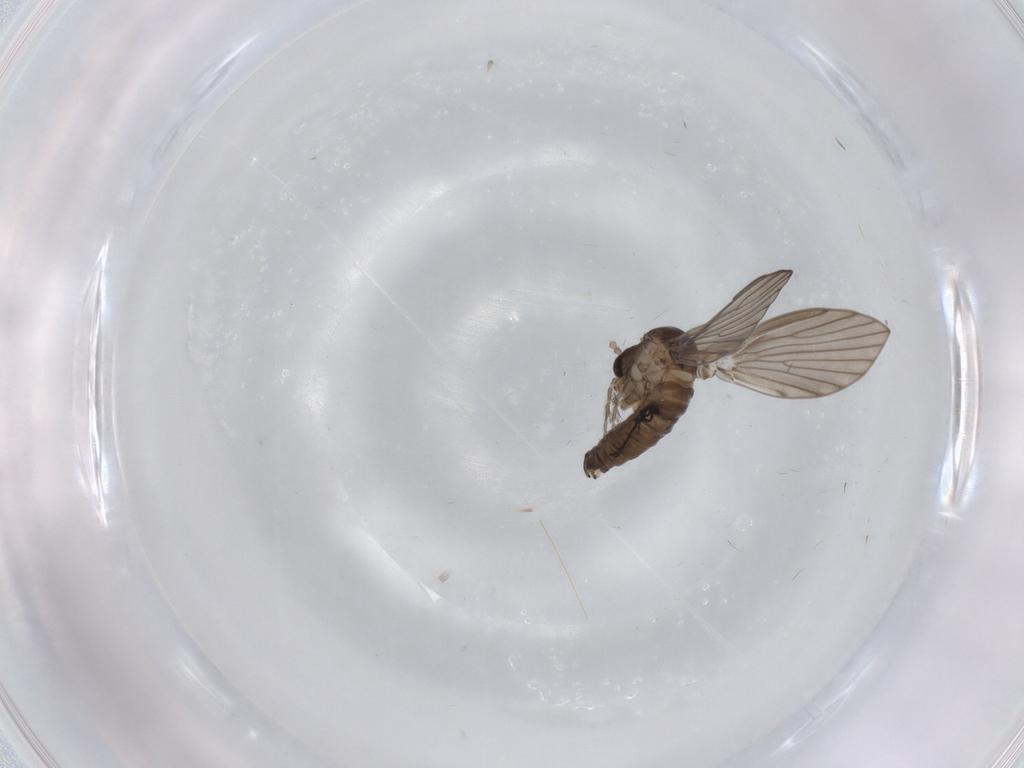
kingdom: Animalia
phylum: Arthropoda
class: Insecta
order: Diptera
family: Psychodidae
